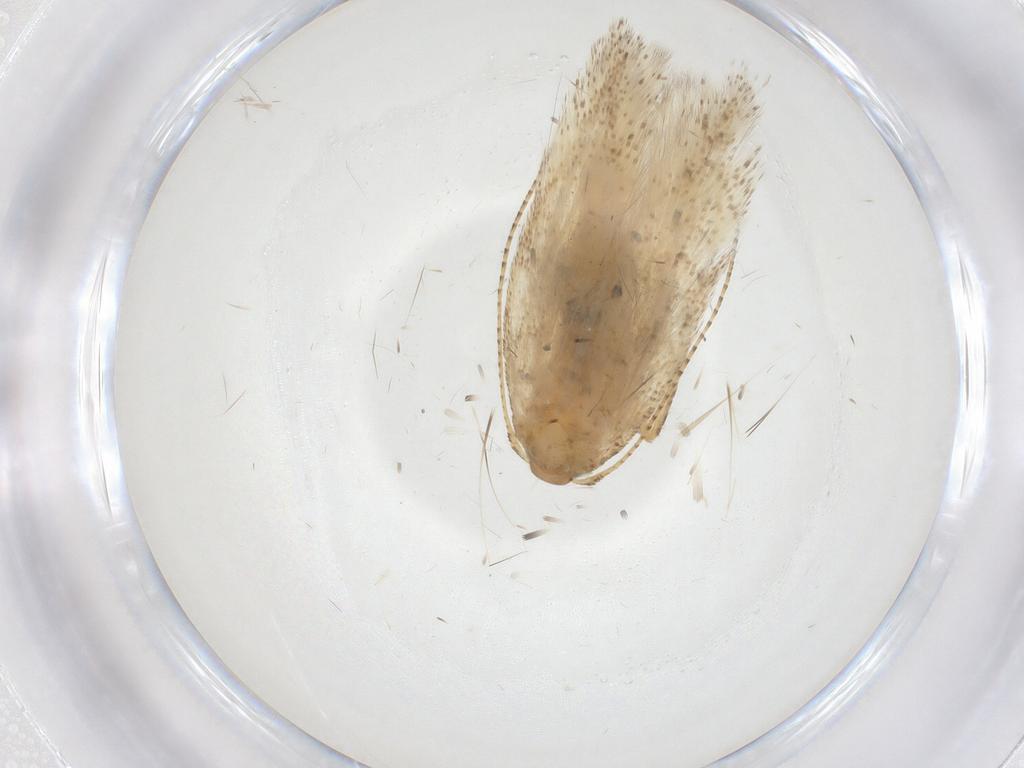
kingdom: Animalia
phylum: Arthropoda
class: Insecta
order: Lepidoptera
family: Gelechiidae
